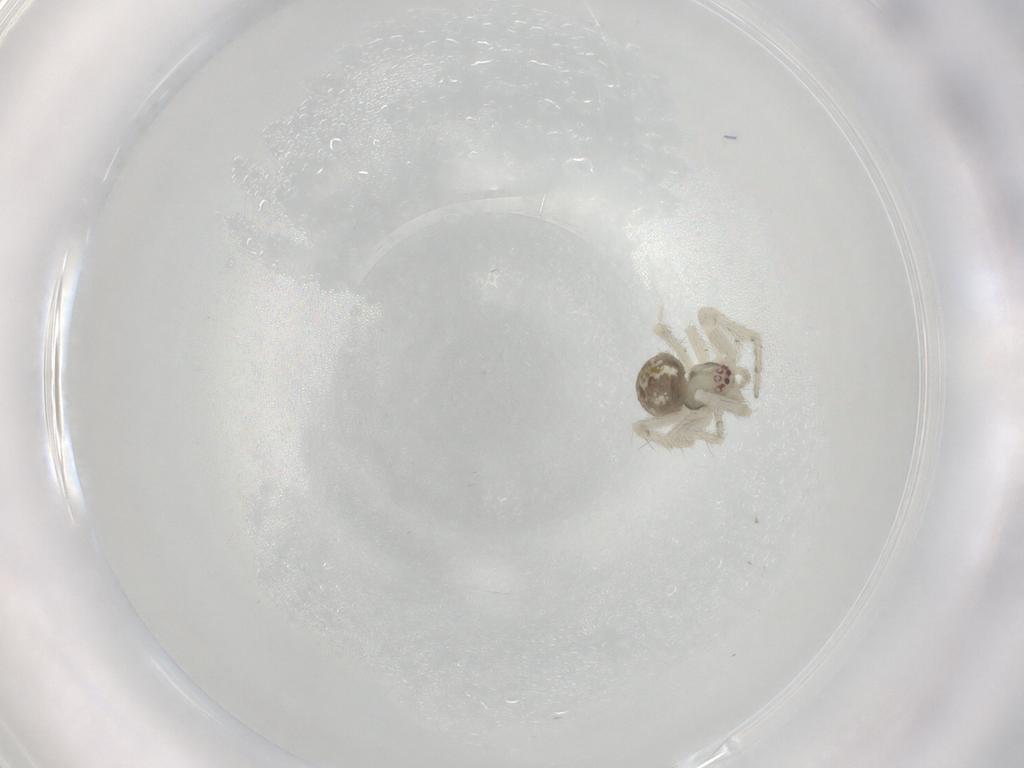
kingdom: Animalia
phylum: Arthropoda
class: Arachnida
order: Araneae
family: Theridiidae
